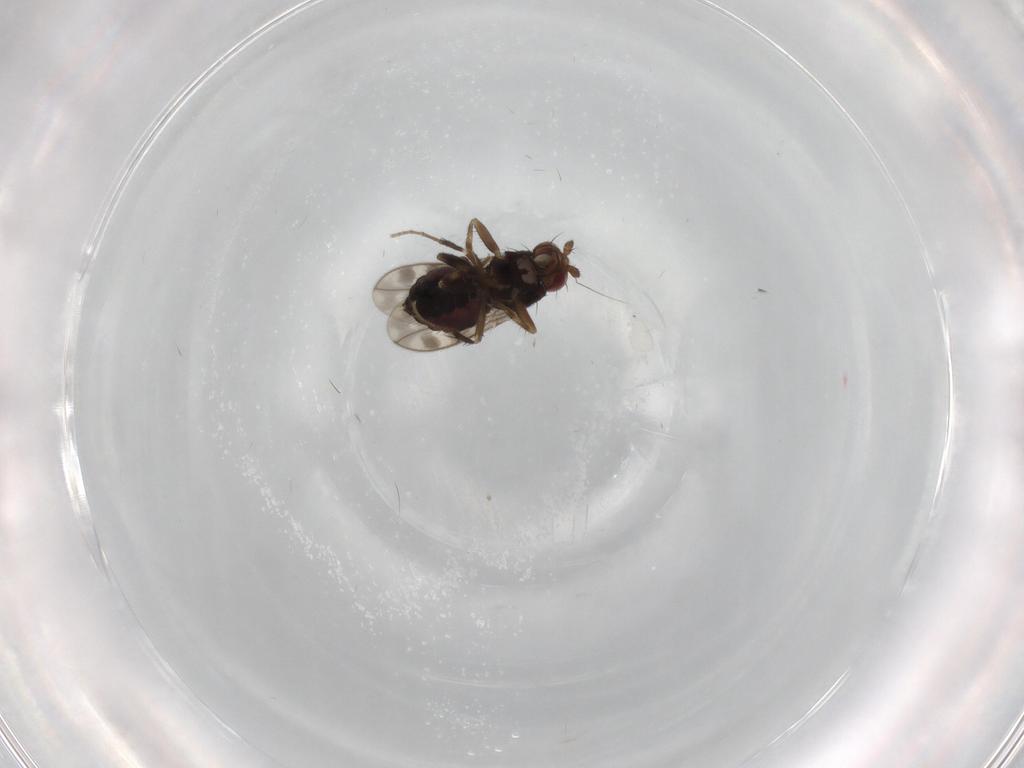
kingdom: Animalia
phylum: Arthropoda
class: Insecta
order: Diptera
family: Sphaeroceridae
